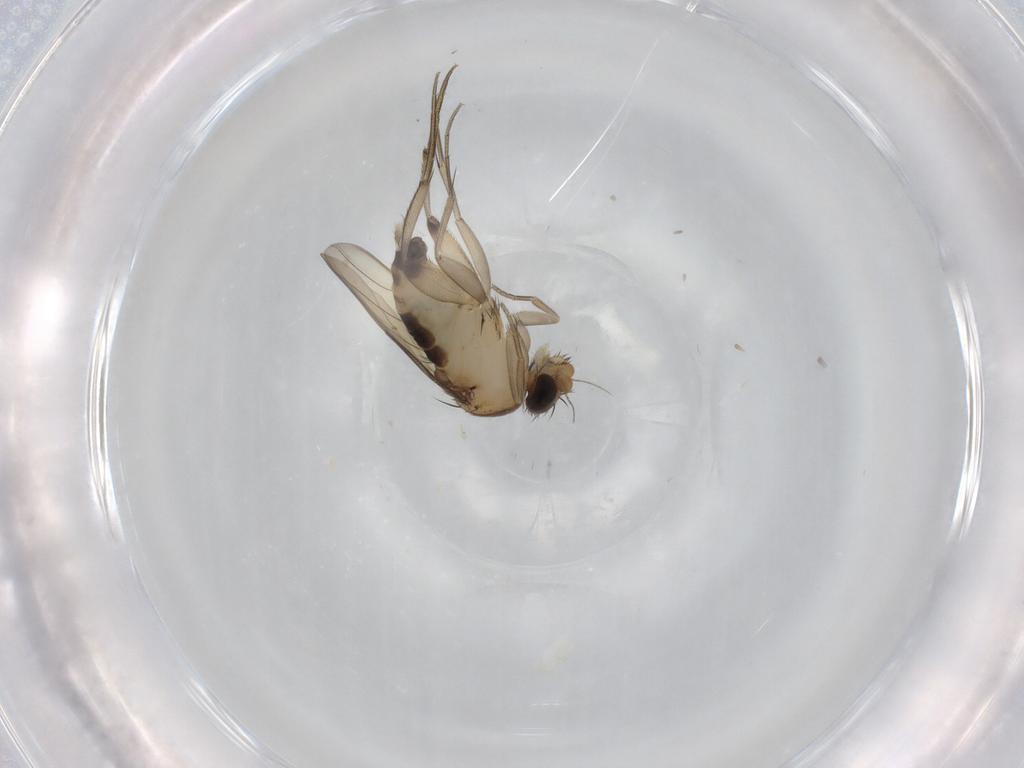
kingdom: Animalia
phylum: Arthropoda
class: Insecta
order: Diptera
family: Phoridae
